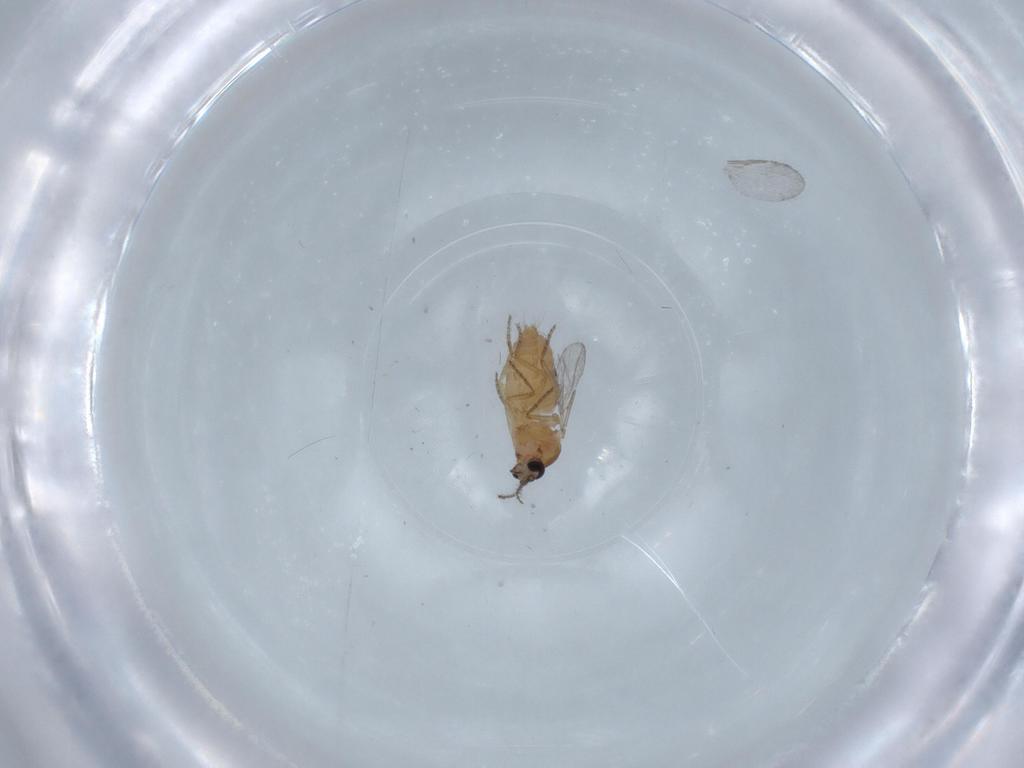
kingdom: Animalia
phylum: Arthropoda
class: Insecta
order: Diptera
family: Ceratopogonidae
